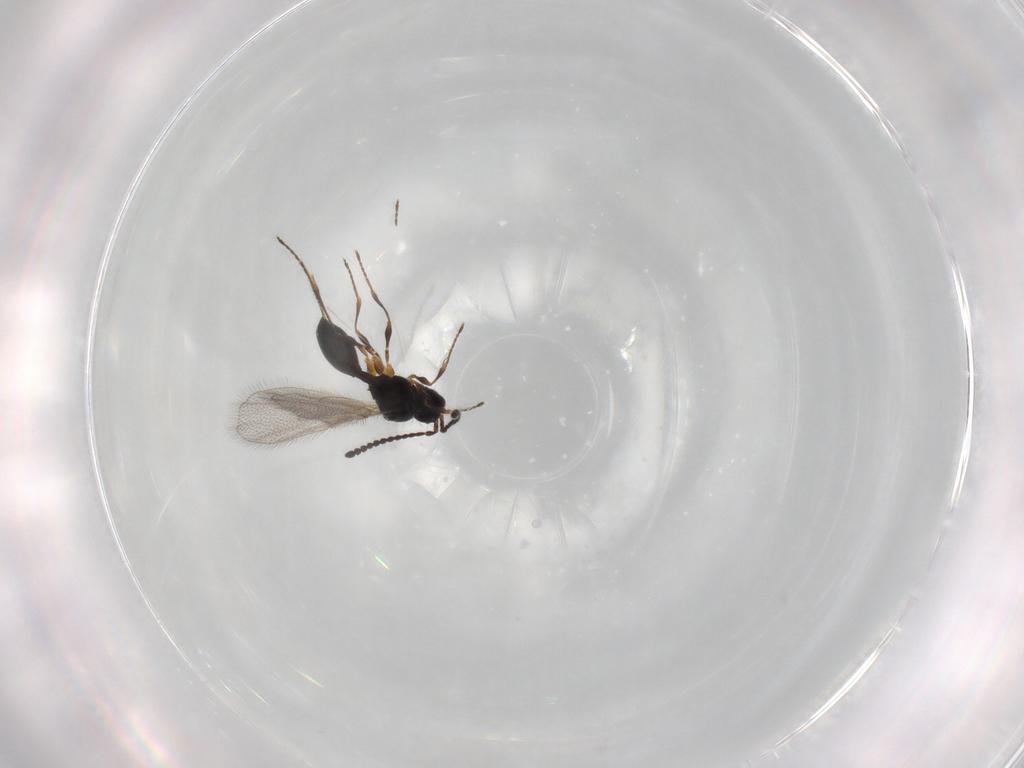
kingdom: Animalia
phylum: Arthropoda
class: Insecta
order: Hymenoptera
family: Diapriidae
